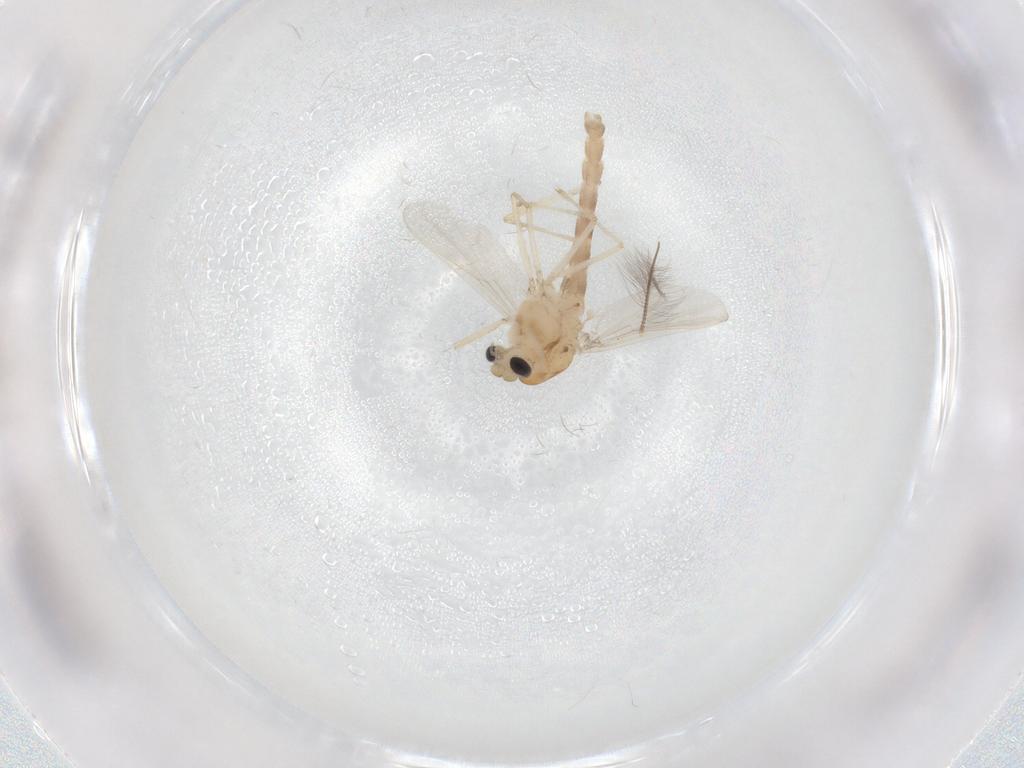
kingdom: Animalia
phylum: Arthropoda
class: Insecta
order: Diptera
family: Chironomidae
